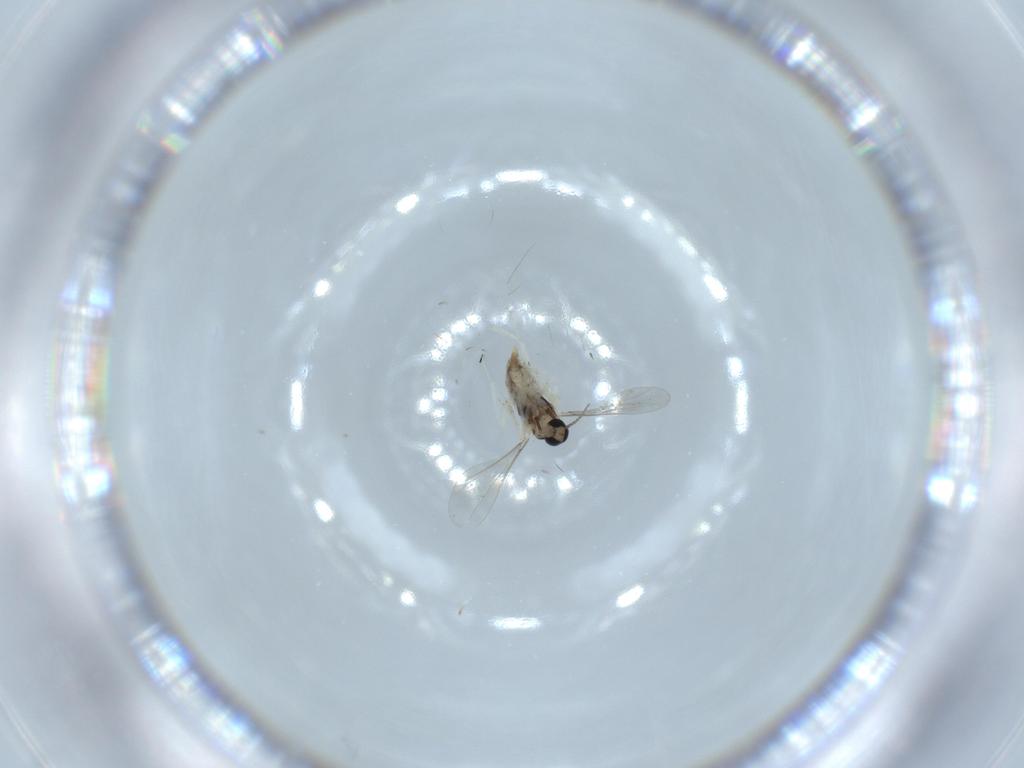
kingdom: Animalia
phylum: Arthropoda
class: Insecta
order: Diptera
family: Cecidomyiidae
